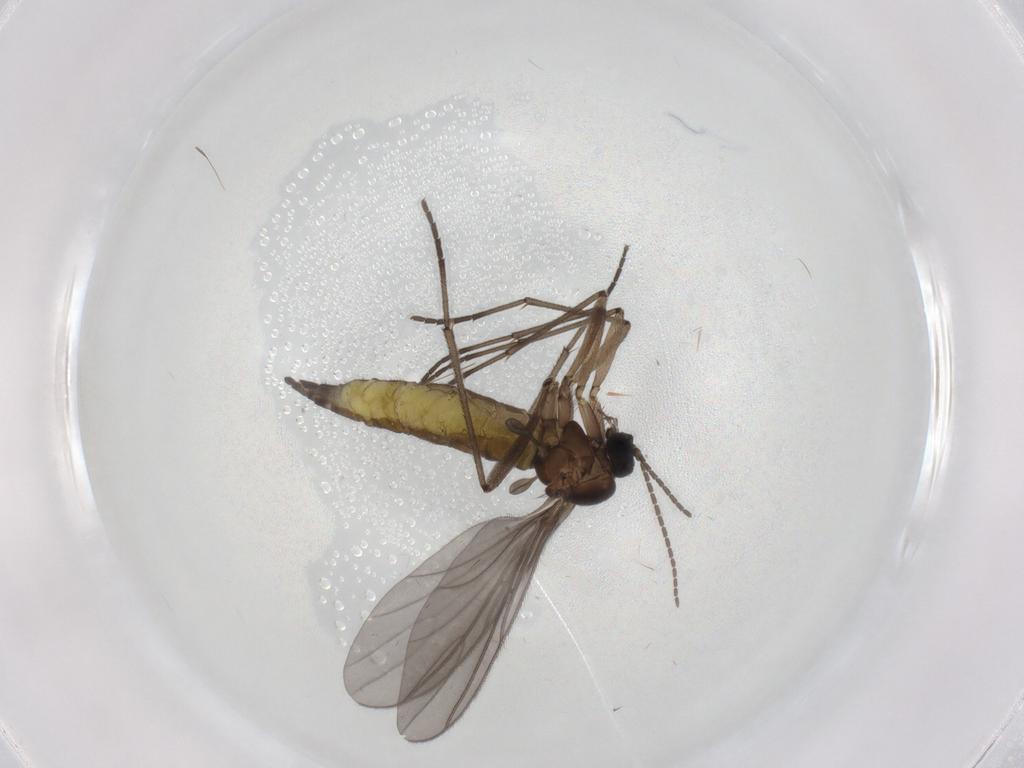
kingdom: Animalia
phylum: Arthropoda
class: Insecta
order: Diptera
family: Sciaridae
